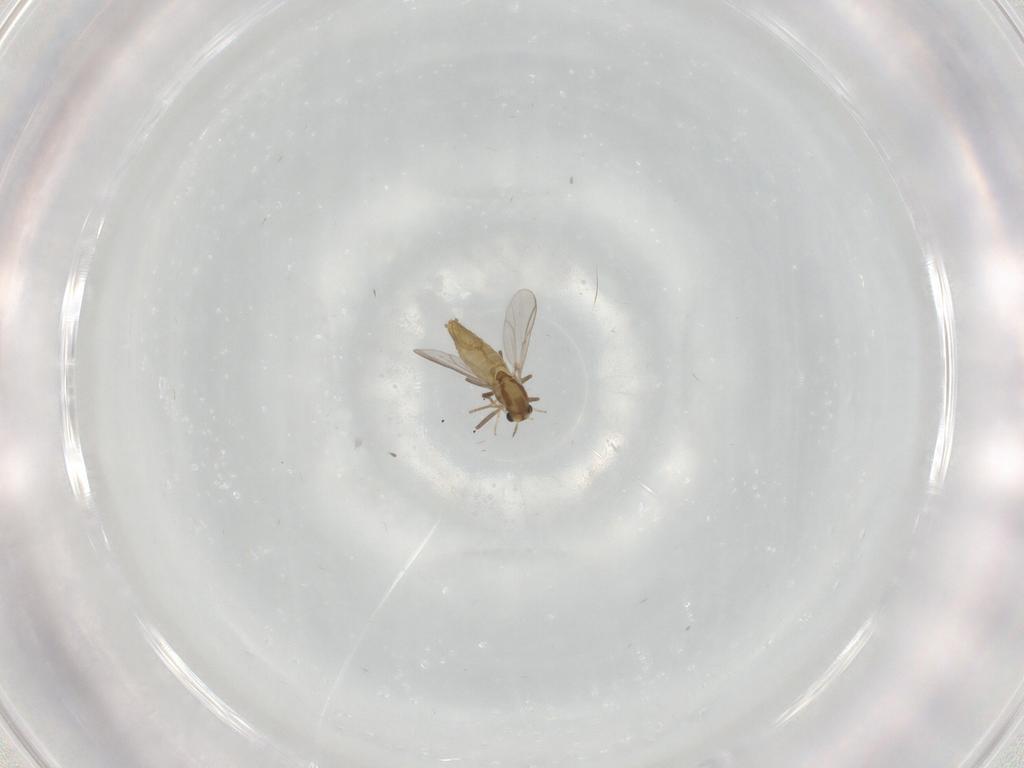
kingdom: Animalia
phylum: Arthropoda
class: Insecta
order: Diptera
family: Chironomidae
